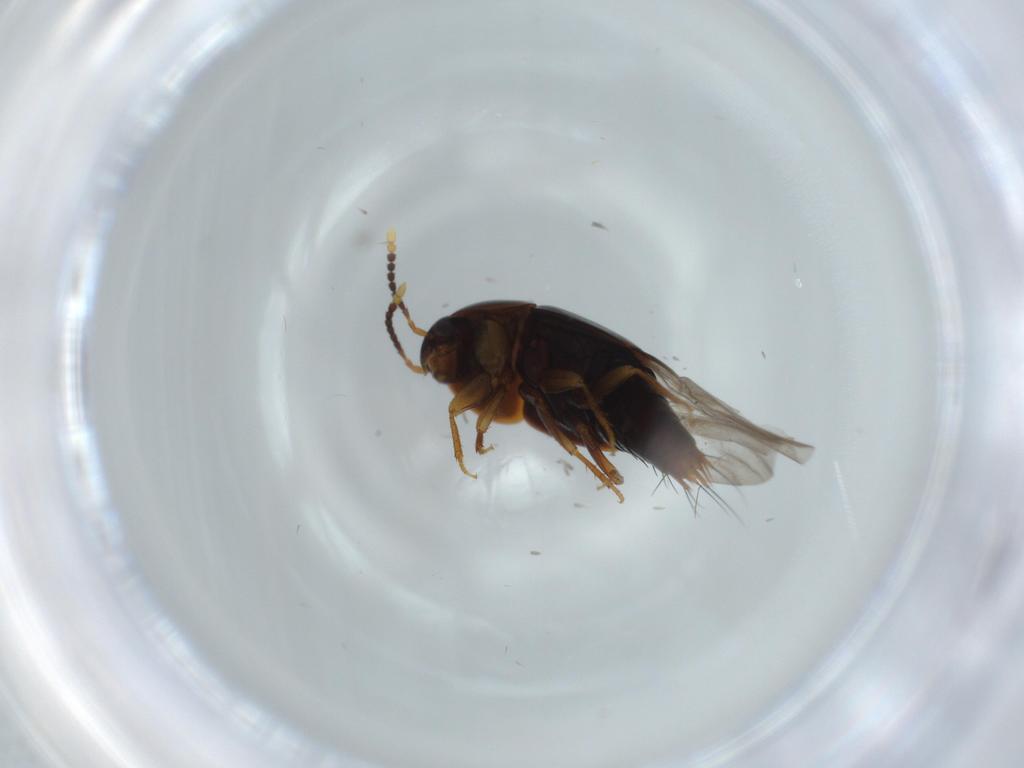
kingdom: Animalia
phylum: Arthropoda
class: Insecta
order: Coleoptera
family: Staphylinidae
